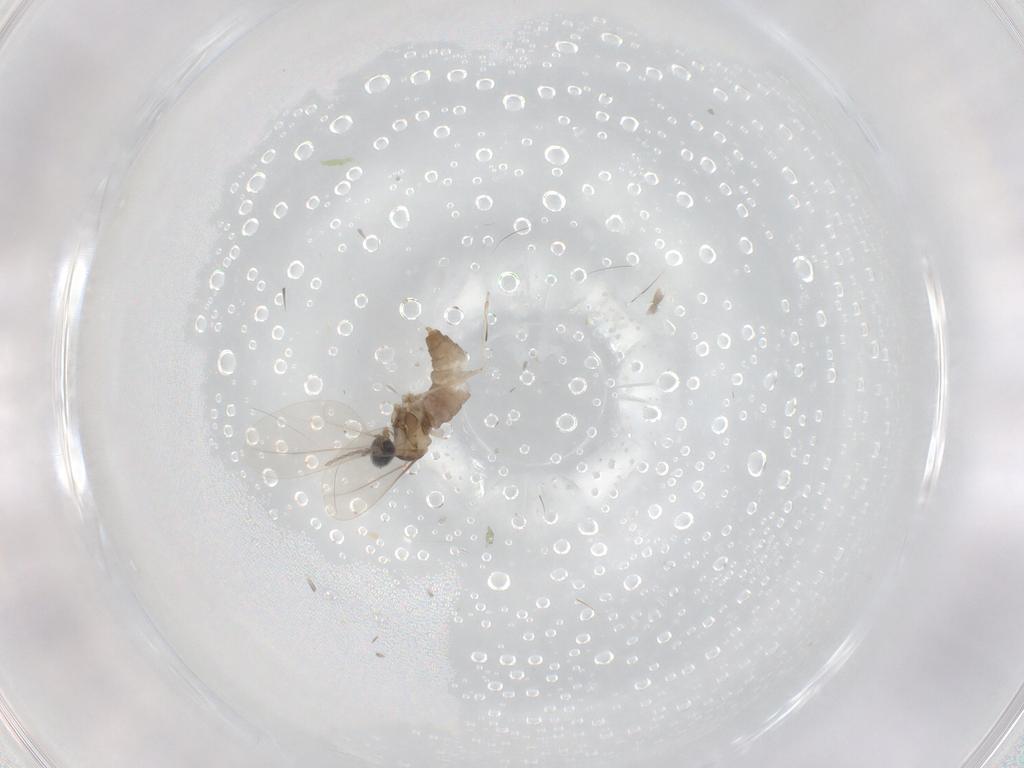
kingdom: Animalia
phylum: Arthropoda
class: Insecta
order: Diptera
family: Cecidomyiidae
